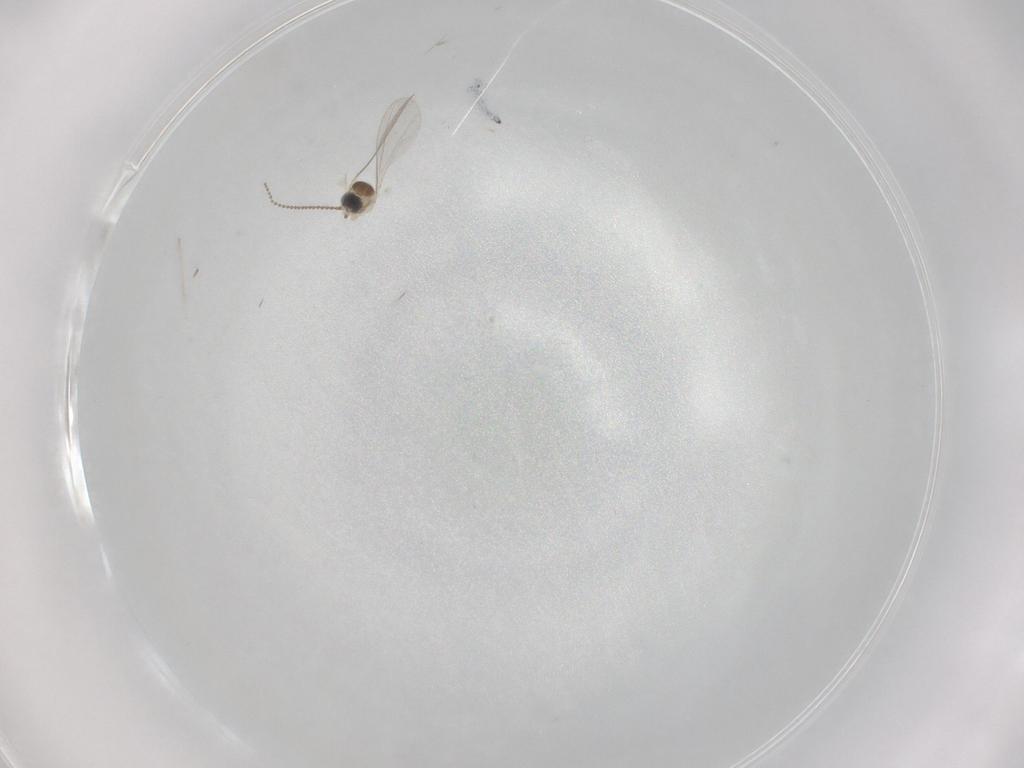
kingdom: Animalia
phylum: Arthropoda
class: Insecta
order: Diptera
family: Cecidomyiidae
